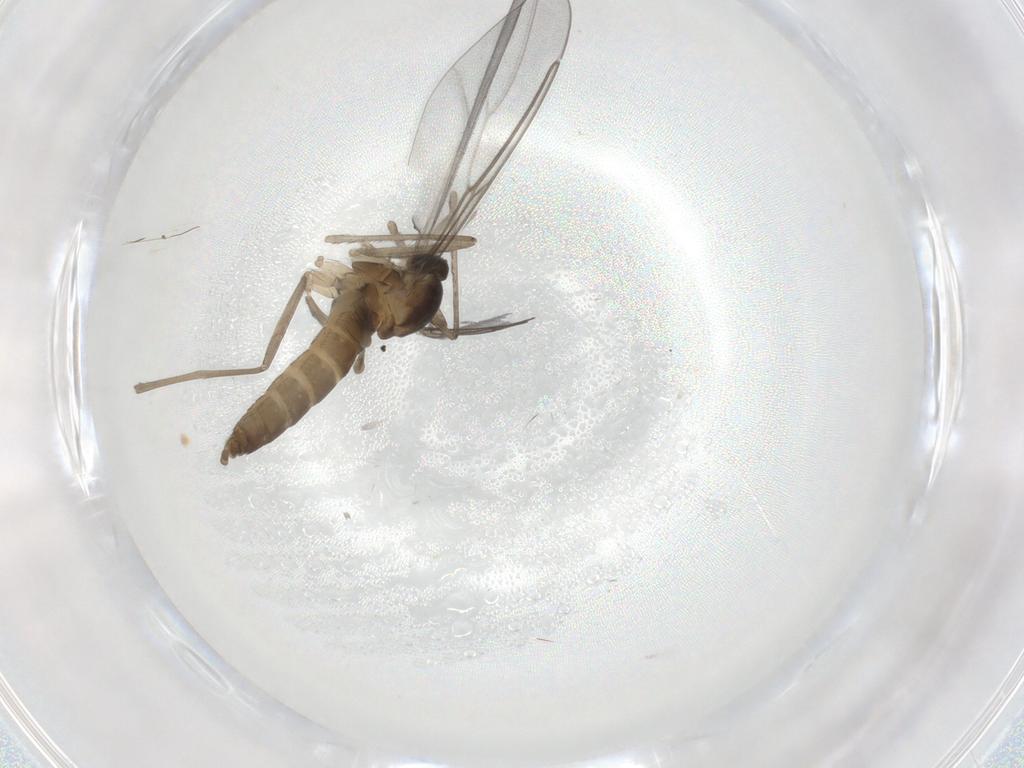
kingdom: Animalia
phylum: Arthropoda
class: Insecta
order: Diptera
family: Cecidomyiidae
